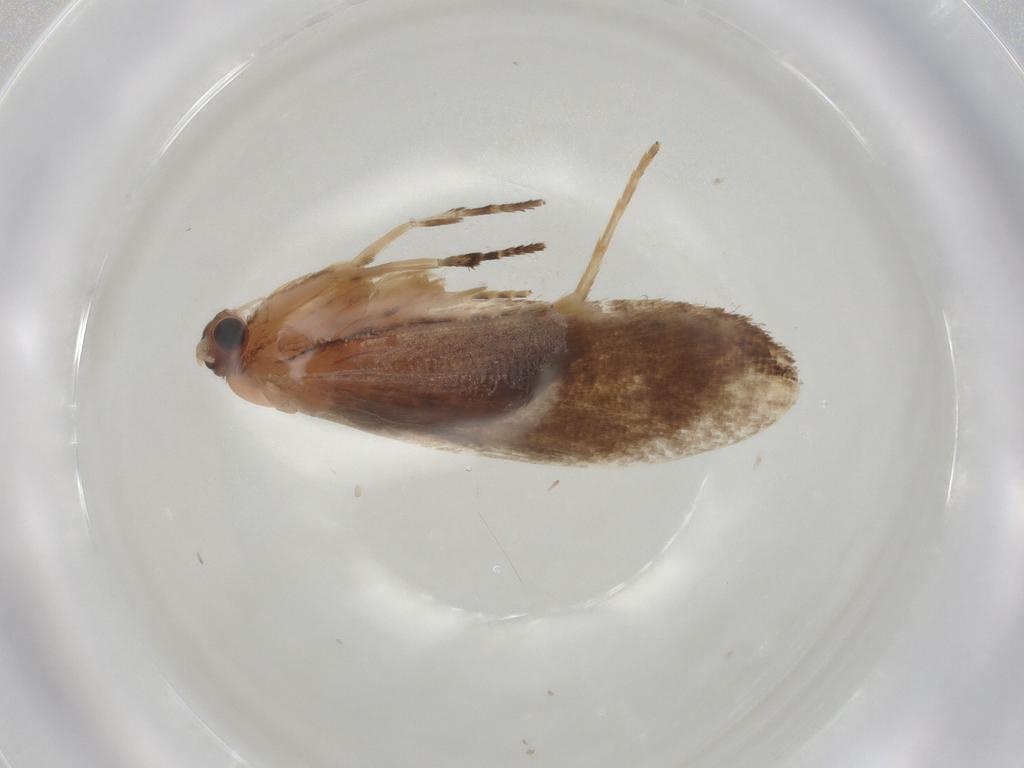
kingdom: Animalia
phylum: Arthropoda
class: Insecta
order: Lepidoptera
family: Tineidae
